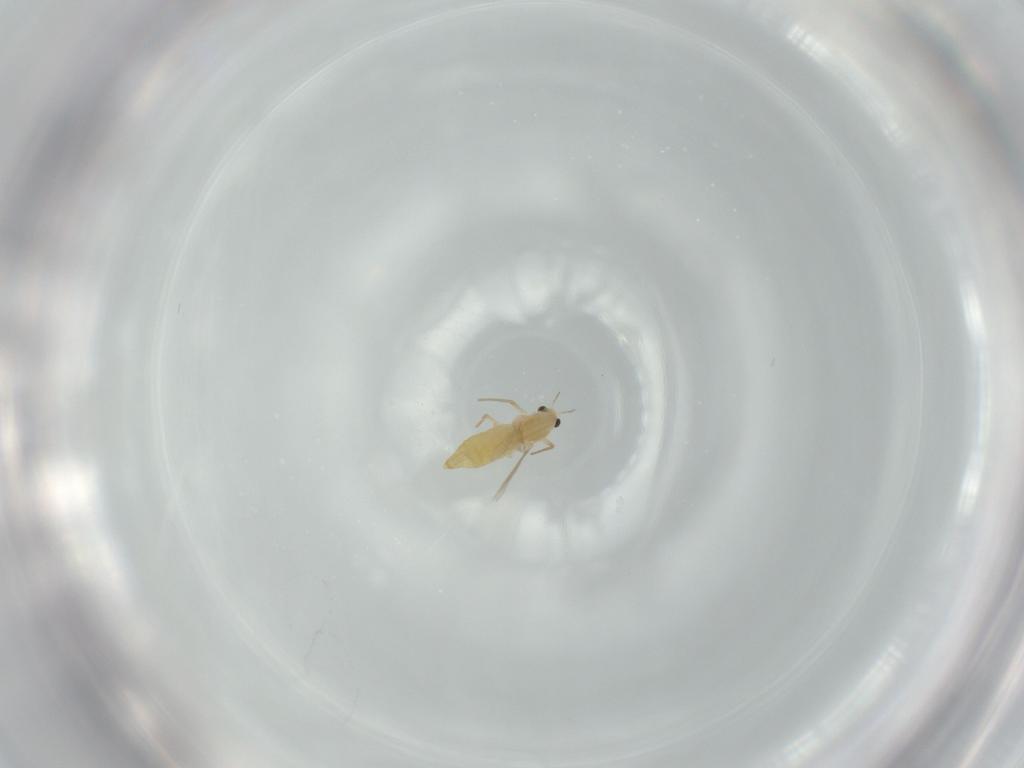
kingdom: Animalia
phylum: Arthropoda
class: Insecta
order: Diptera
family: Chironomidae
